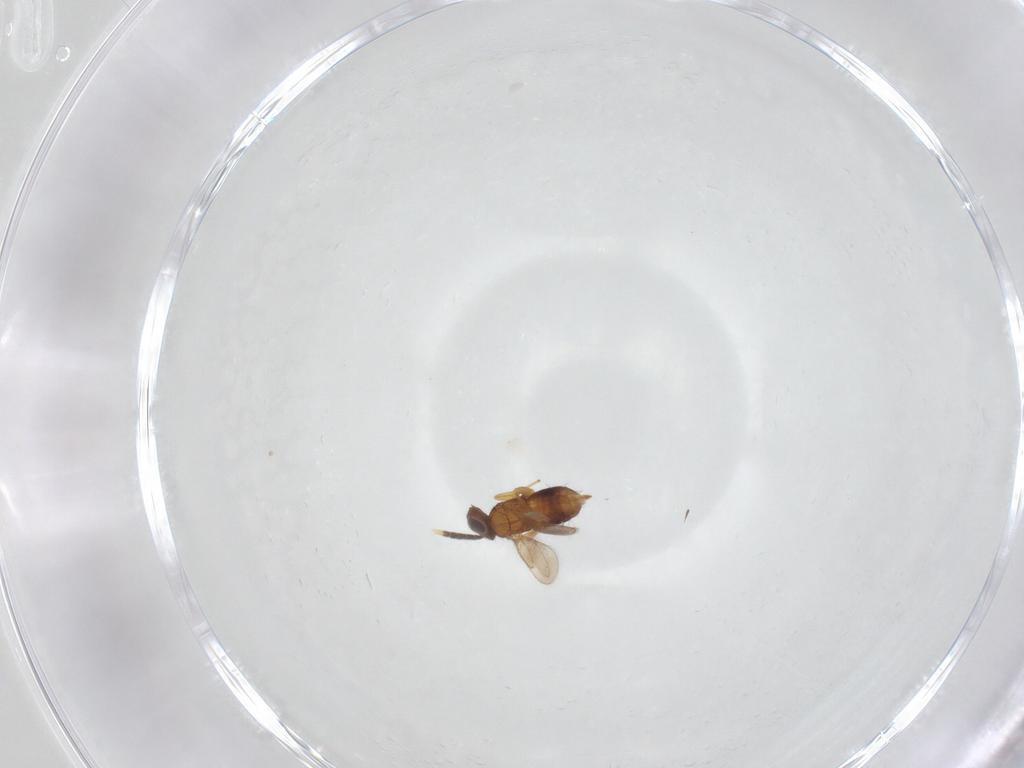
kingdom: Animalia
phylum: Arthropoda
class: Insecta
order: Hymenoptera
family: Aphelinidae
